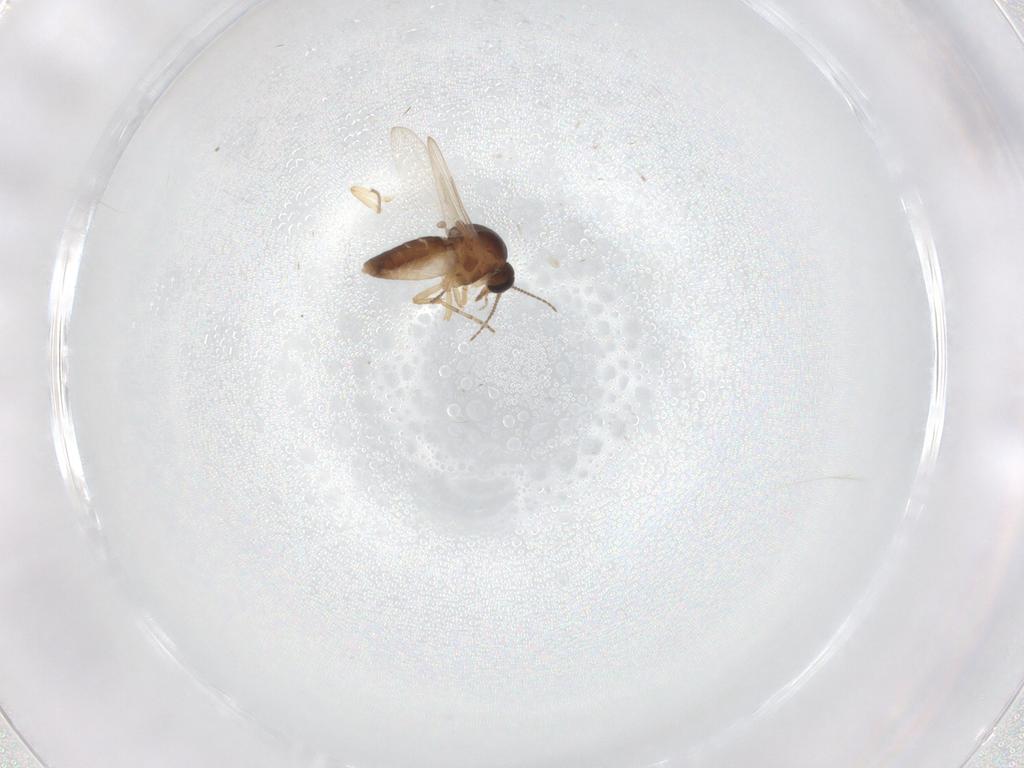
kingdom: Animalia
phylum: Arthropoda
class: Insecta
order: Diptera
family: Ceratopogonidae
